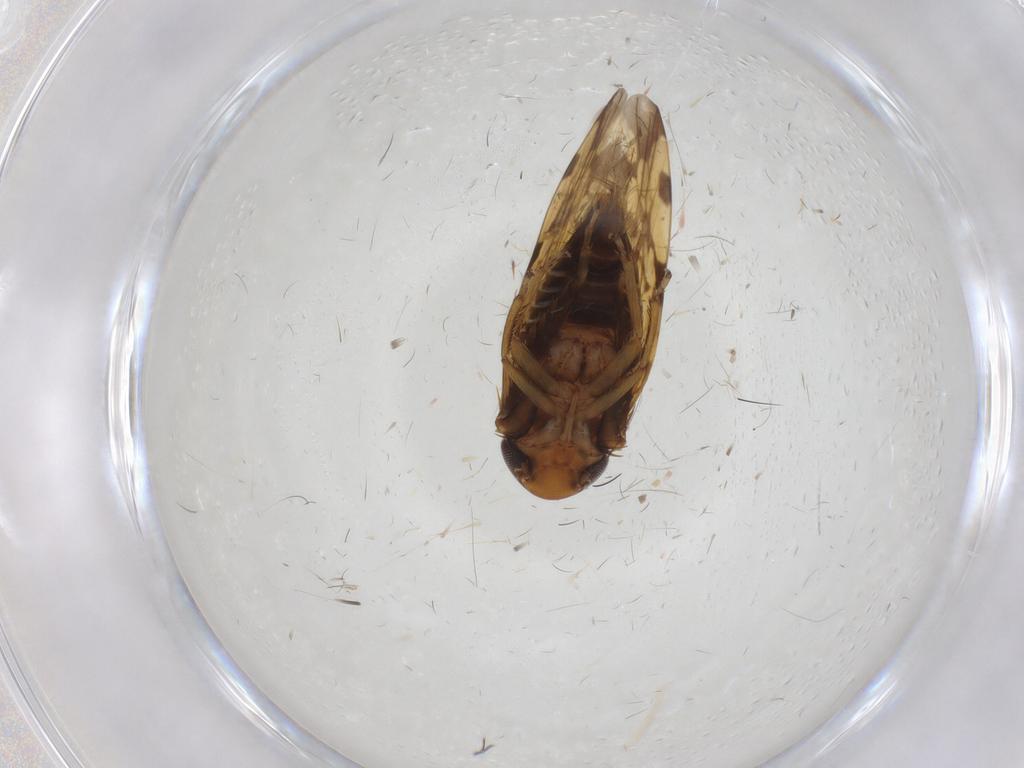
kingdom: Animalia
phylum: Arthropoda
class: Insecta
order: Hemiptera
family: Cicadellidae
